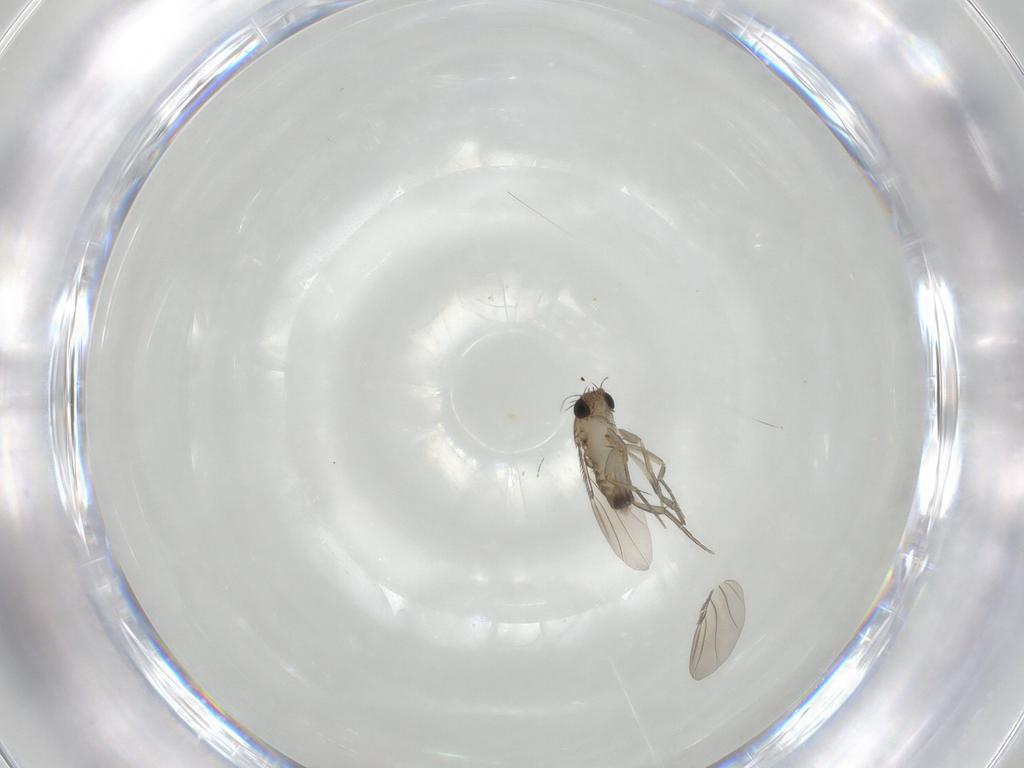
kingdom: Animalia
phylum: Arthropoda
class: Insecta
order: Diptera
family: Phoridae
